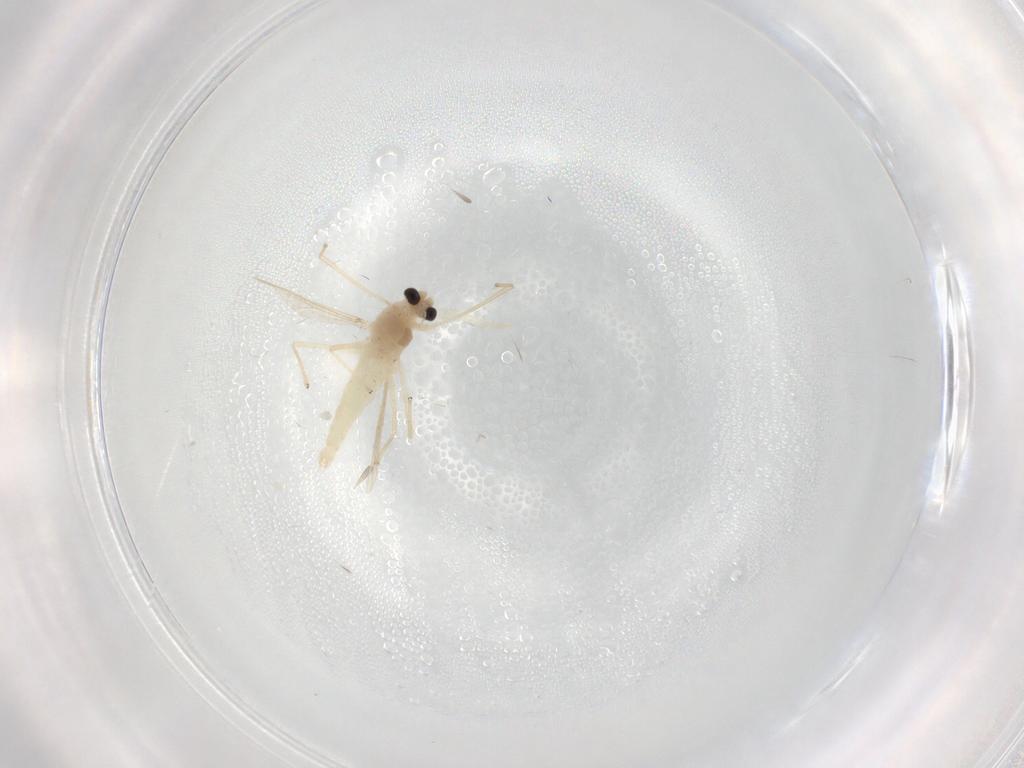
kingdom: Animalia
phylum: Arthropoda
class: Insecta
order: Diptera
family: Chironomidae
